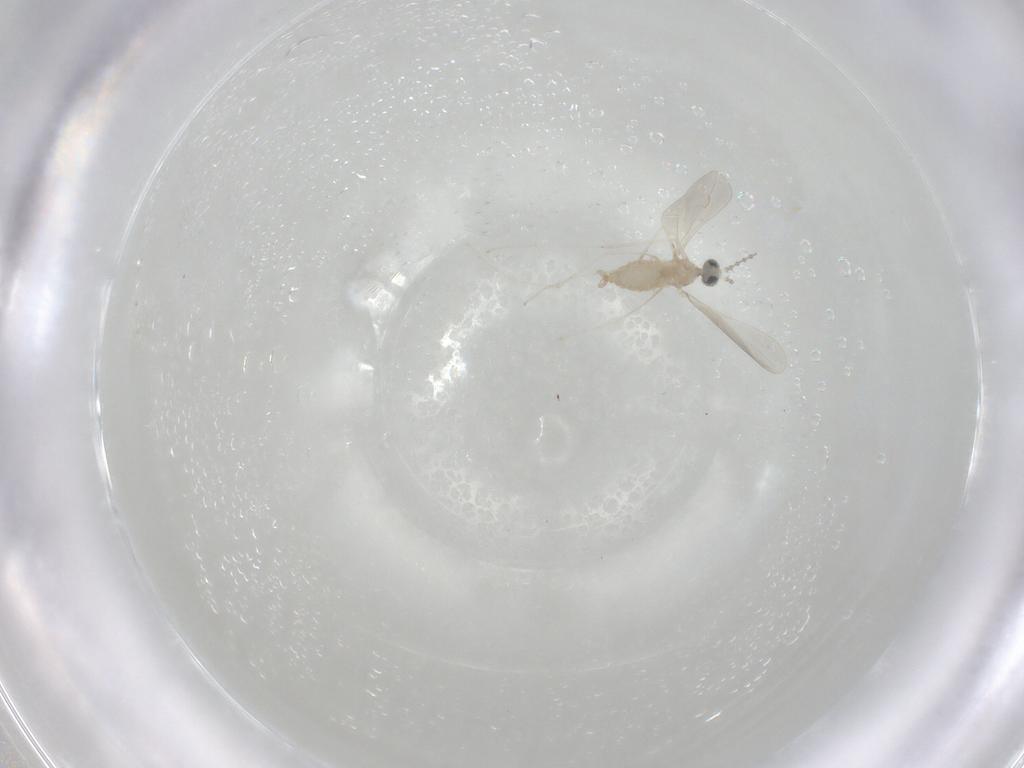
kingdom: Animalia
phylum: Arthropoda
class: Insecta
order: Diptera
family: Cecidomyiidae
